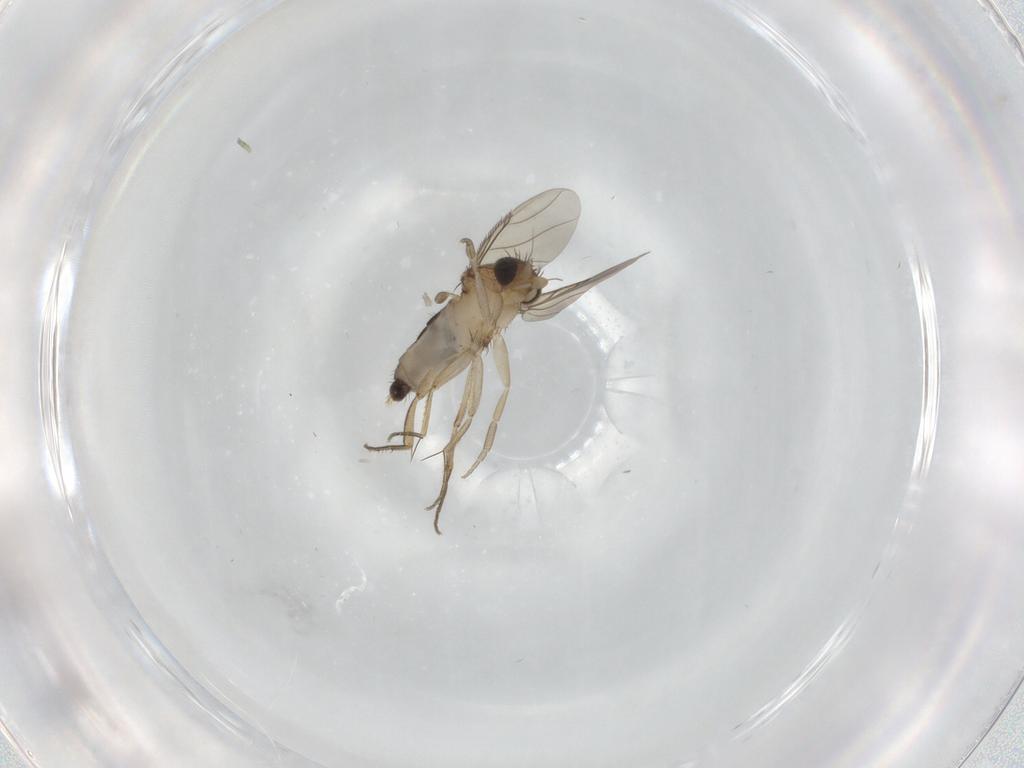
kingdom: Animalia
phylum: Arthropoda
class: Insecta
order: Diptera
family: Phoridae
